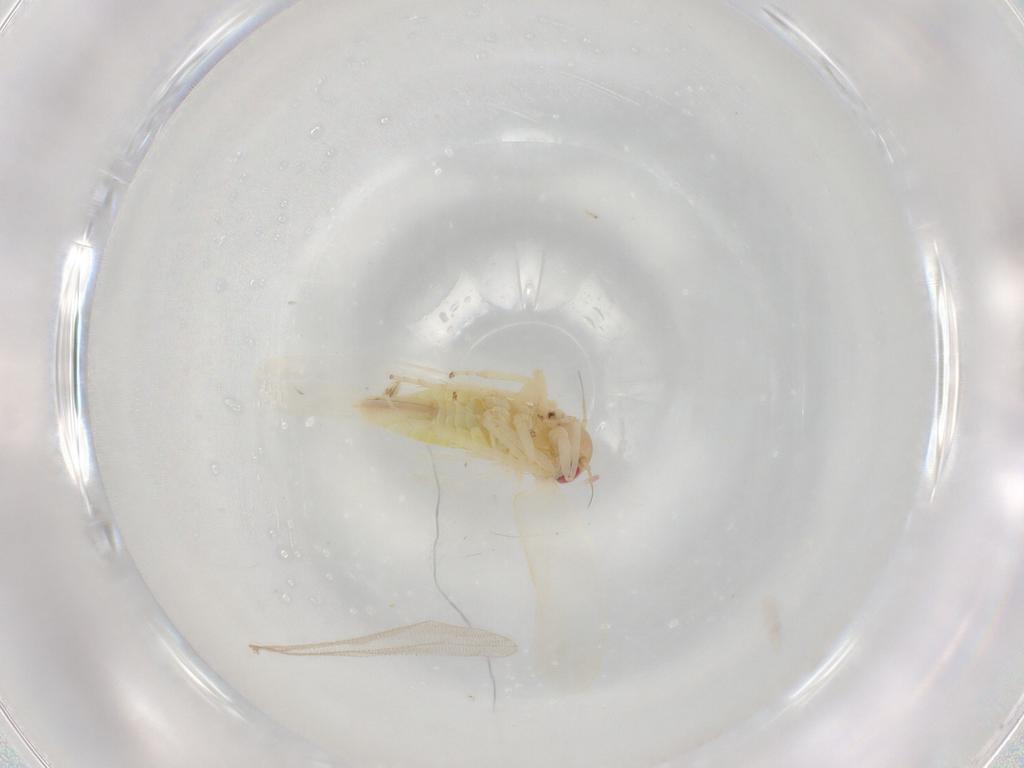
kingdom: Animalia
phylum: Arthropoda
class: Insecta
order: Hemiptera
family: Cicadellidae
